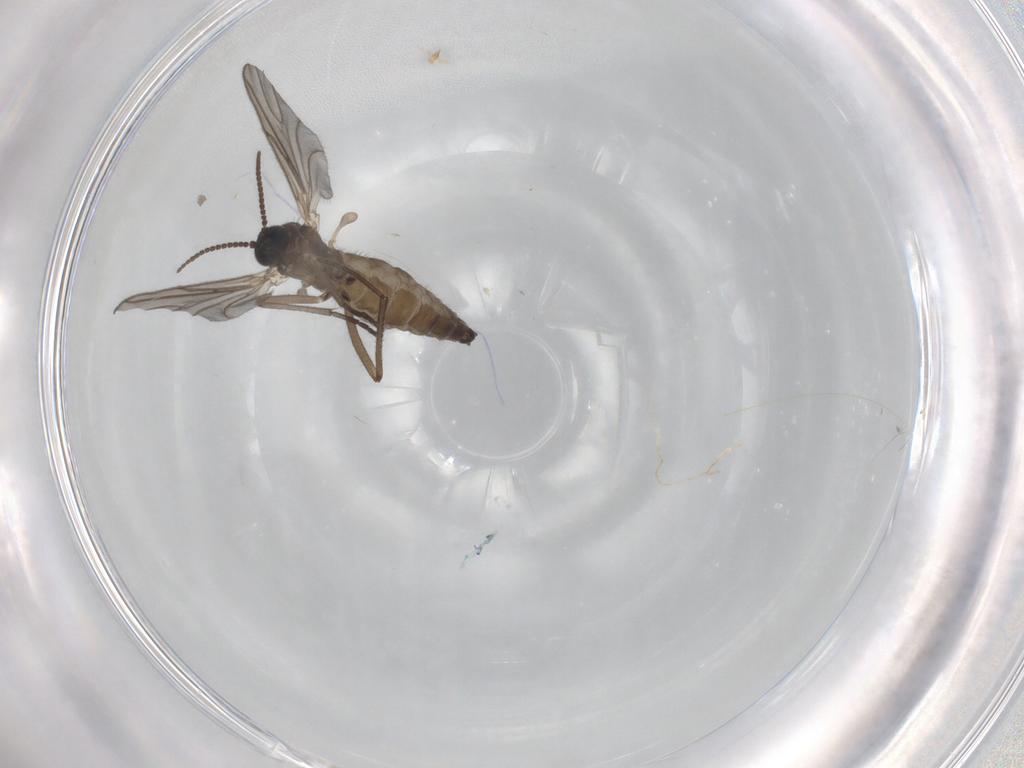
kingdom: Animalia
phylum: Arthropoda
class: Insecta
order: Diptera
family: Sciaridae
